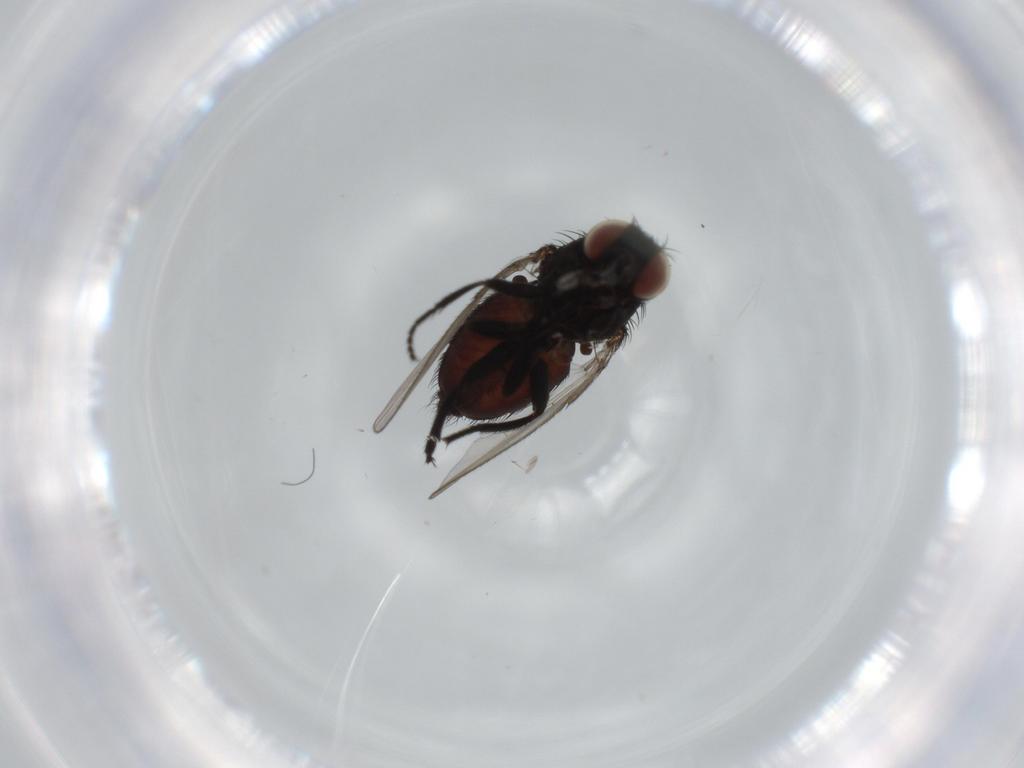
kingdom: Animalia
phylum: Arthropoda
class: Insecta
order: Diptera
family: Milichiidae
